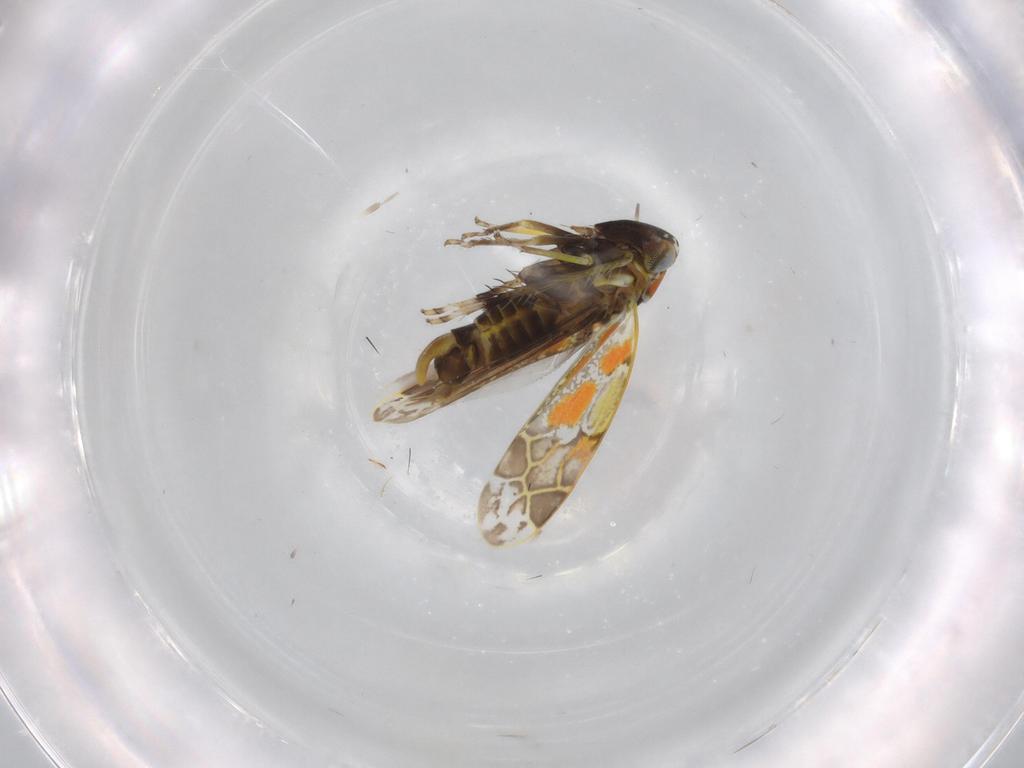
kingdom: Animalia
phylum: Arthropoda
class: Insecta
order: Hemiptera
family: Cicadellidae
